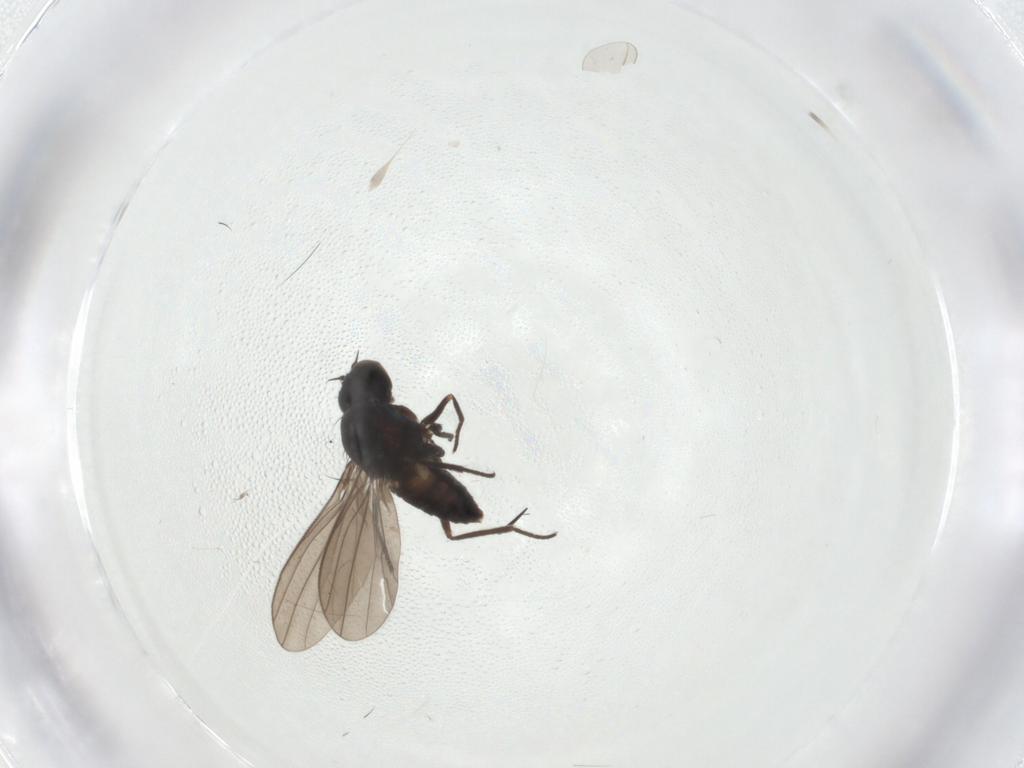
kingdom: Animalia
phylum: Arthropoda
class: Insecta
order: Diptera
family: Dolichopodidae
